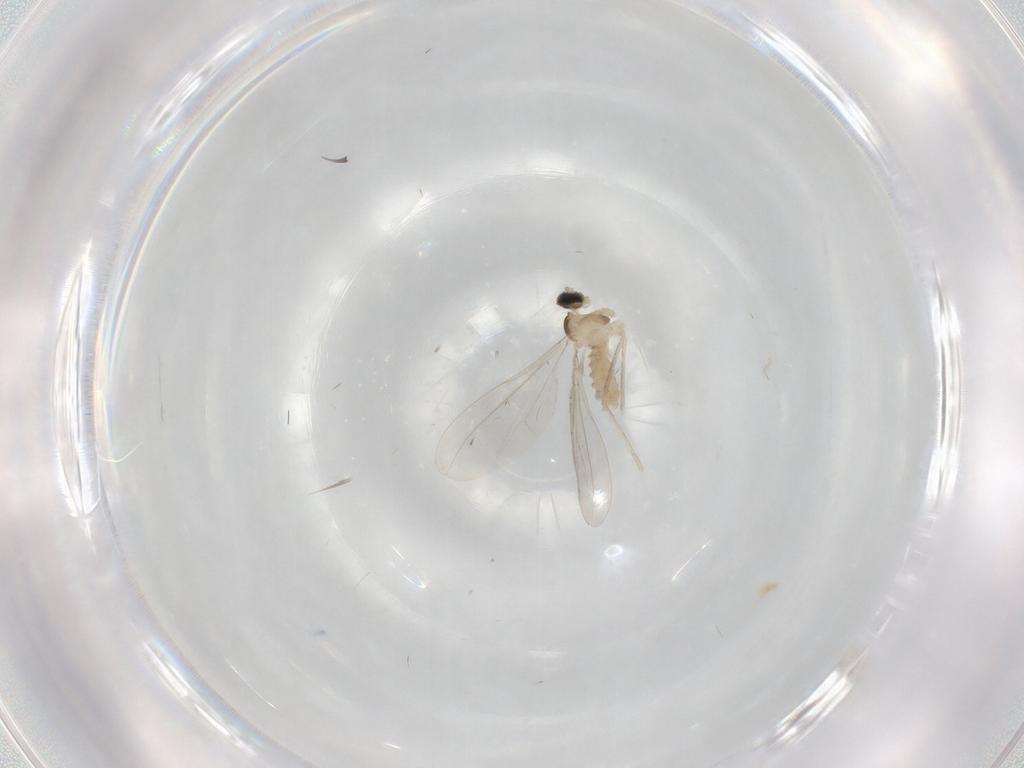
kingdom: Animalia
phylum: Arthropoda
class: Insecta
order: Diptera
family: Cecidomyiidae
